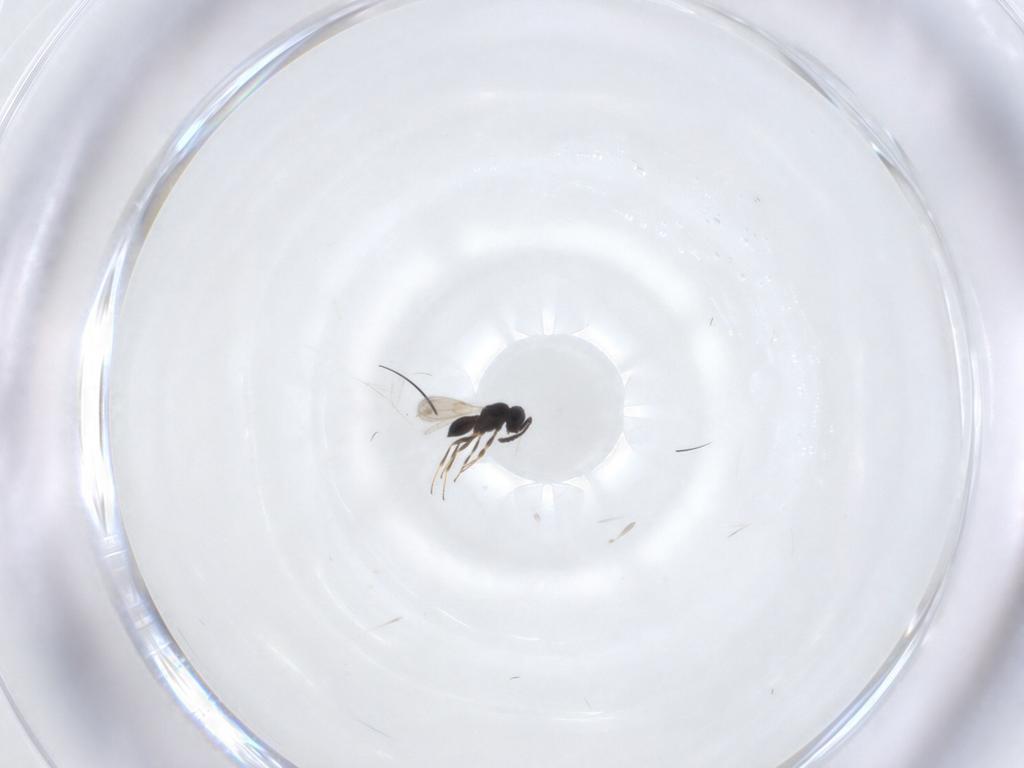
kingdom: Animalia
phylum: Arthropoda
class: Insecta
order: Hymenoptera
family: Scelionidae
